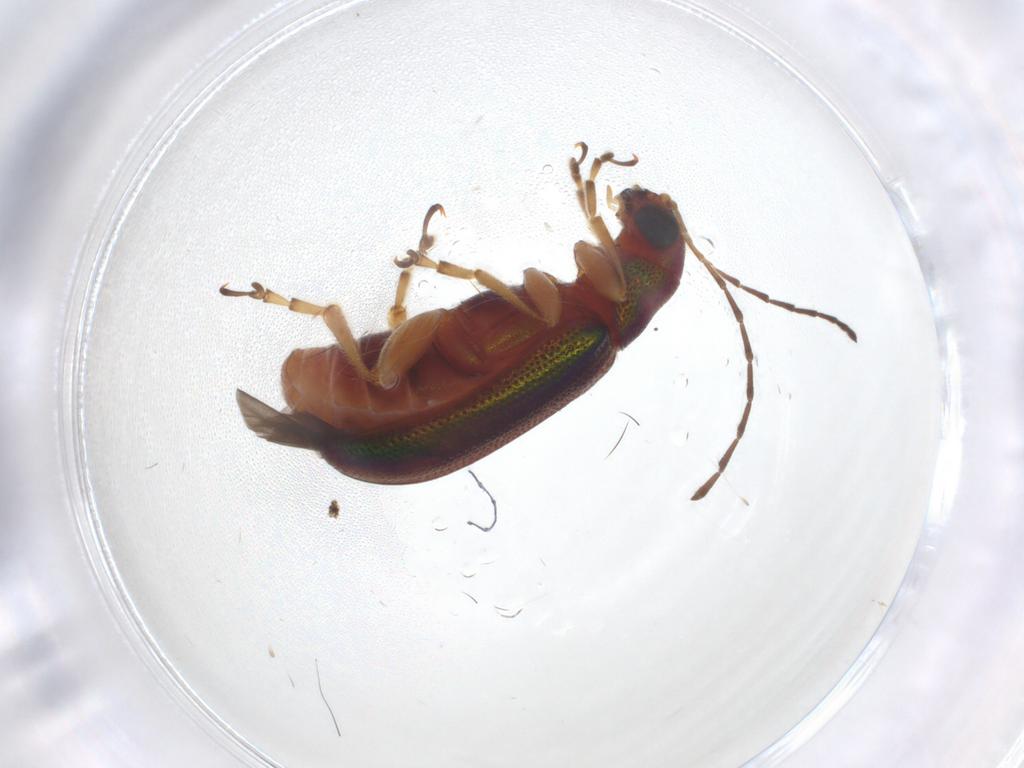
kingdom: Animalia
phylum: Arthropoda
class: Insecta
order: Coleoptera
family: Chrysomelidae
